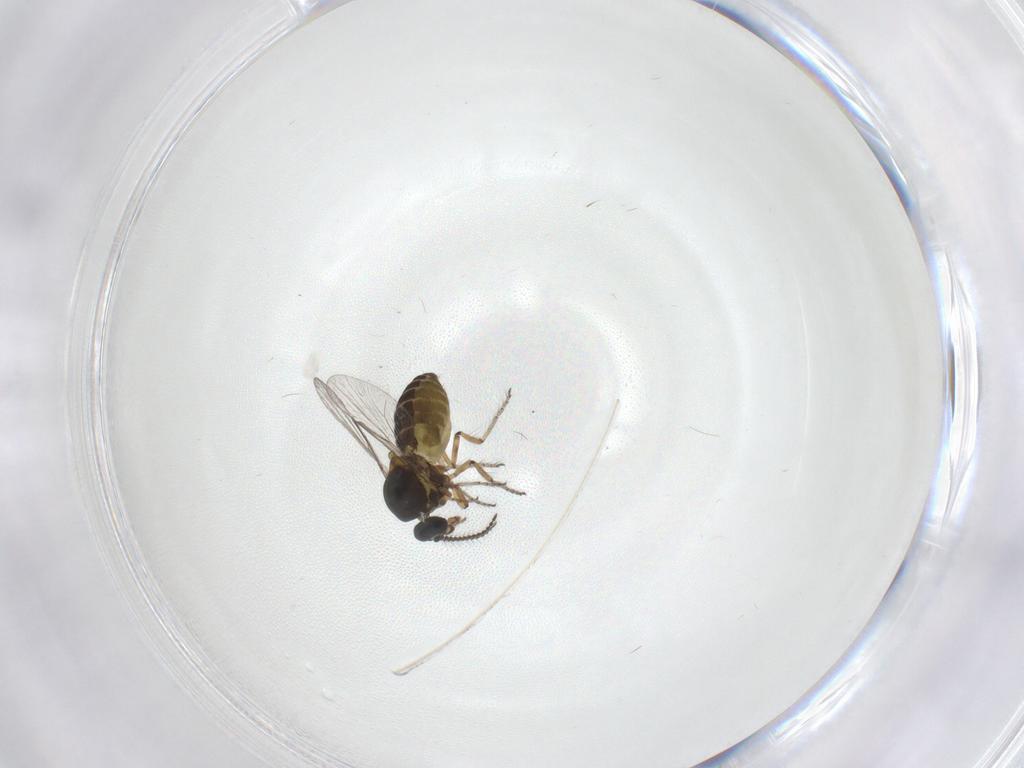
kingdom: Animalia
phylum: Arthropoda
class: Insecta
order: Diptera
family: Ceratopogonidae
